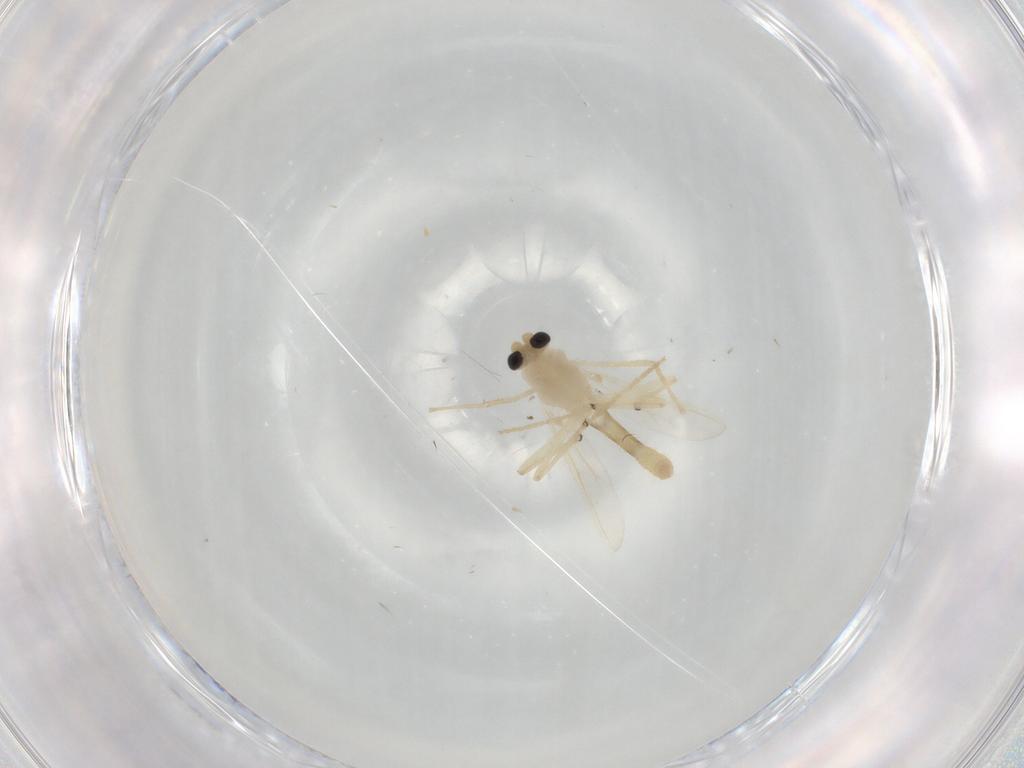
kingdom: Animalia
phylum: Arthropoda
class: Insecta
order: Diptera
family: Chironomidae
